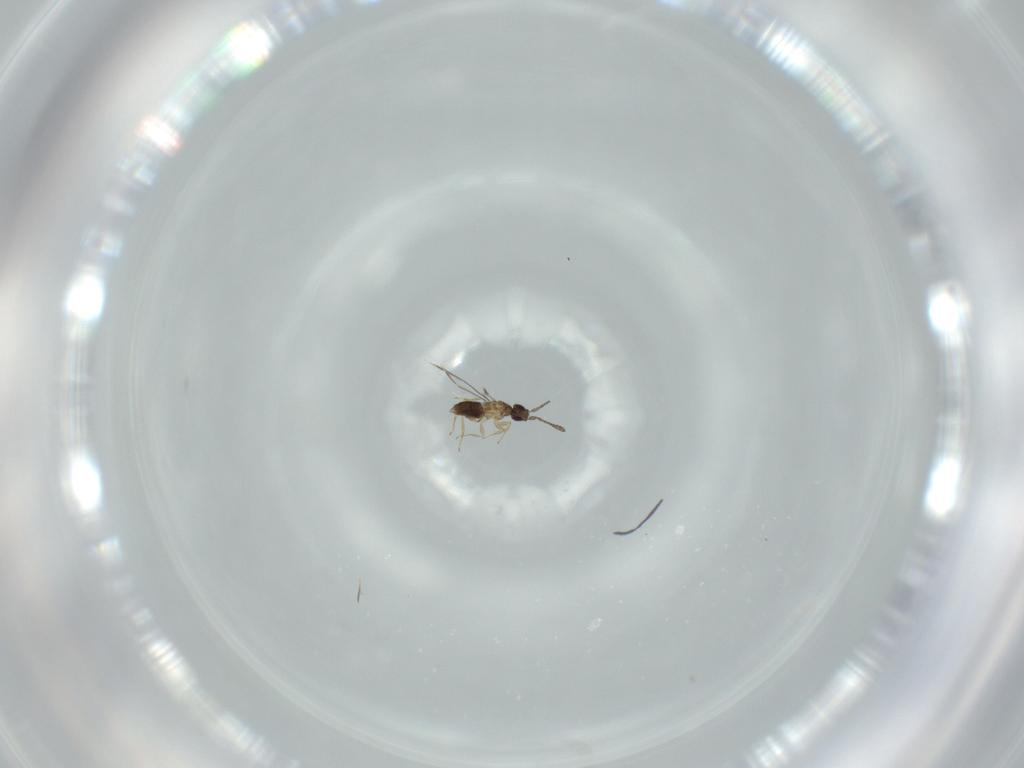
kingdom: Animalia
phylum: Arthropoda
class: Insecta
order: Hymenoptera
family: Mymaridae
